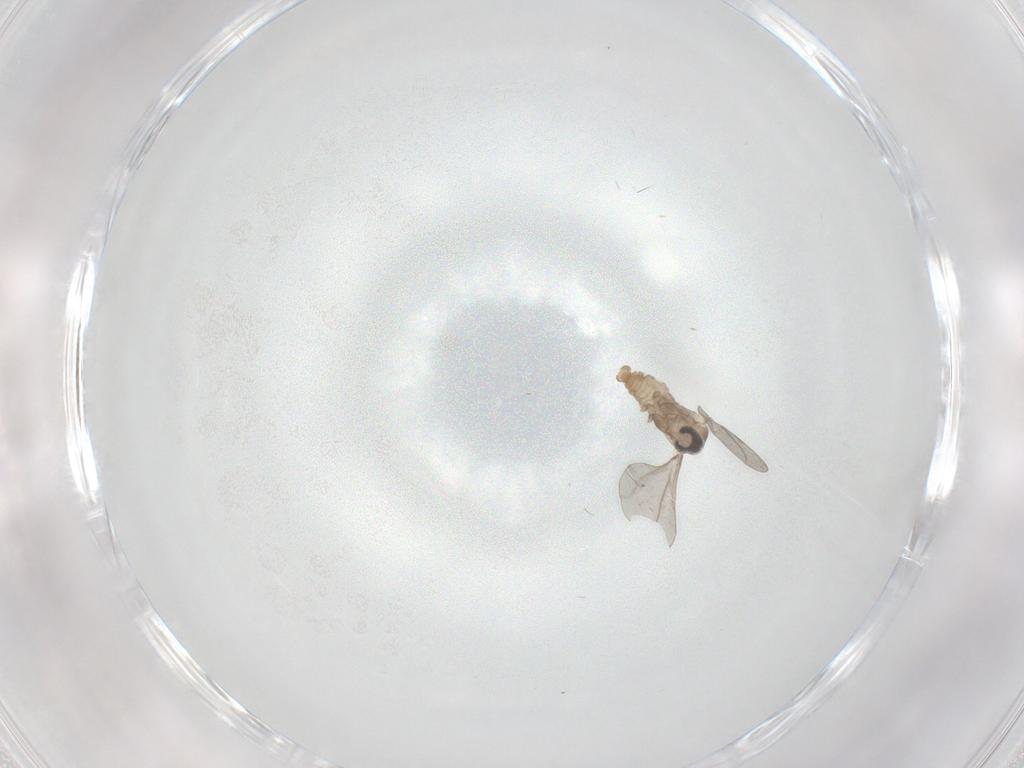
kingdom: Animalia
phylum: Arthropoda
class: Insecta
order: Diptera
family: Cecidomyiidae
